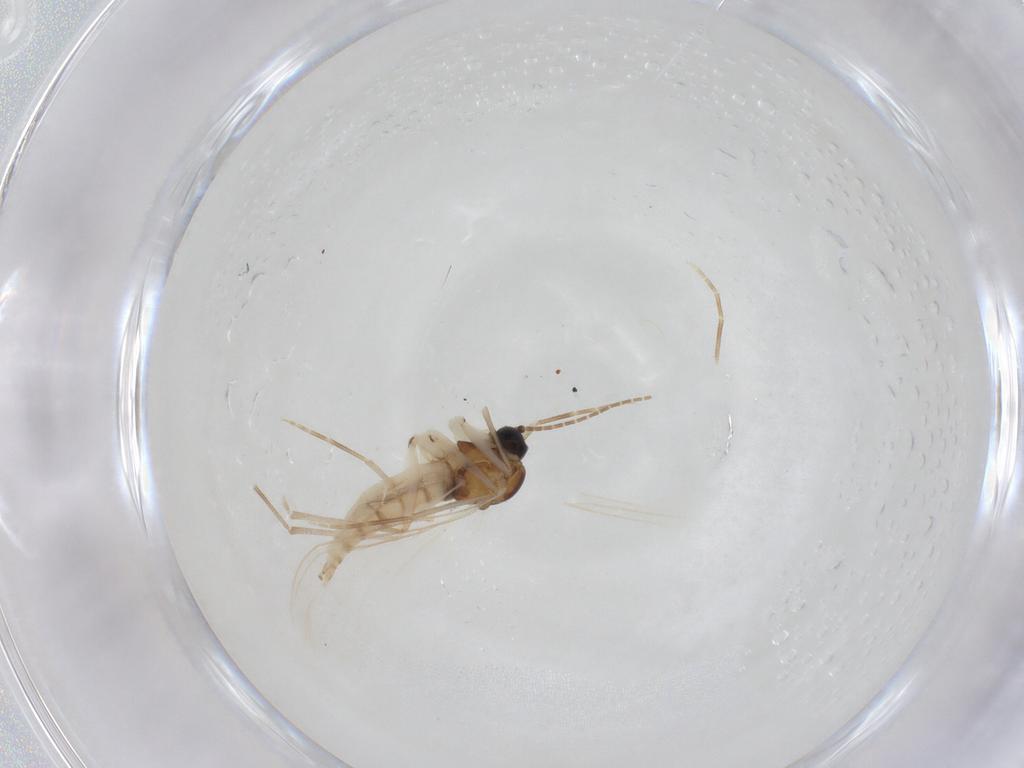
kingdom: Animalia
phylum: Arthropoda
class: Insecta
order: Diptera
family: Sciaridae
